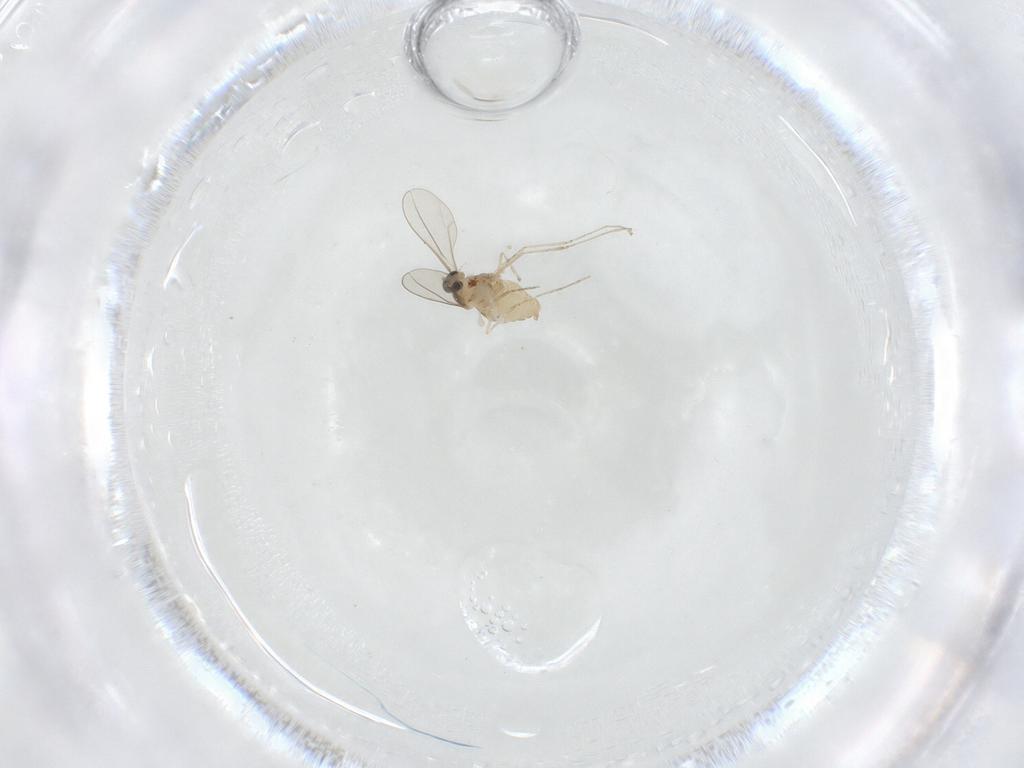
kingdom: Animalia
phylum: Arthropoda
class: Insecta
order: Diptera
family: Cecidomyiidae
